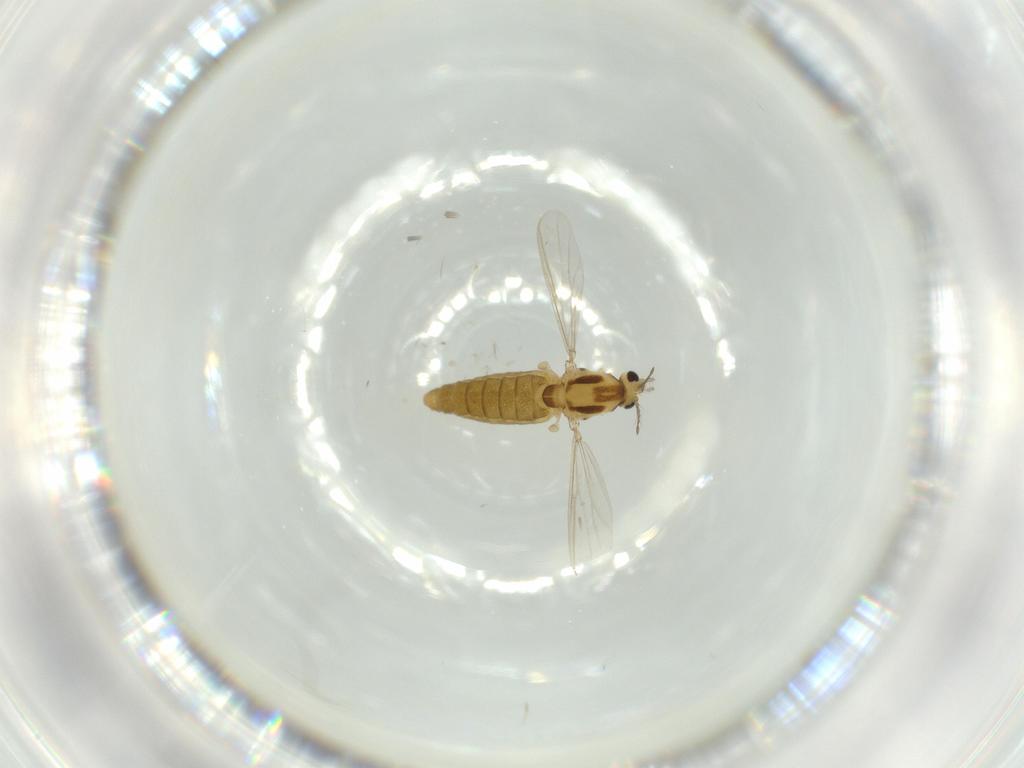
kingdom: Animalia
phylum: Arthropoda
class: Insecta
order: Diptera
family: Chironomidae
